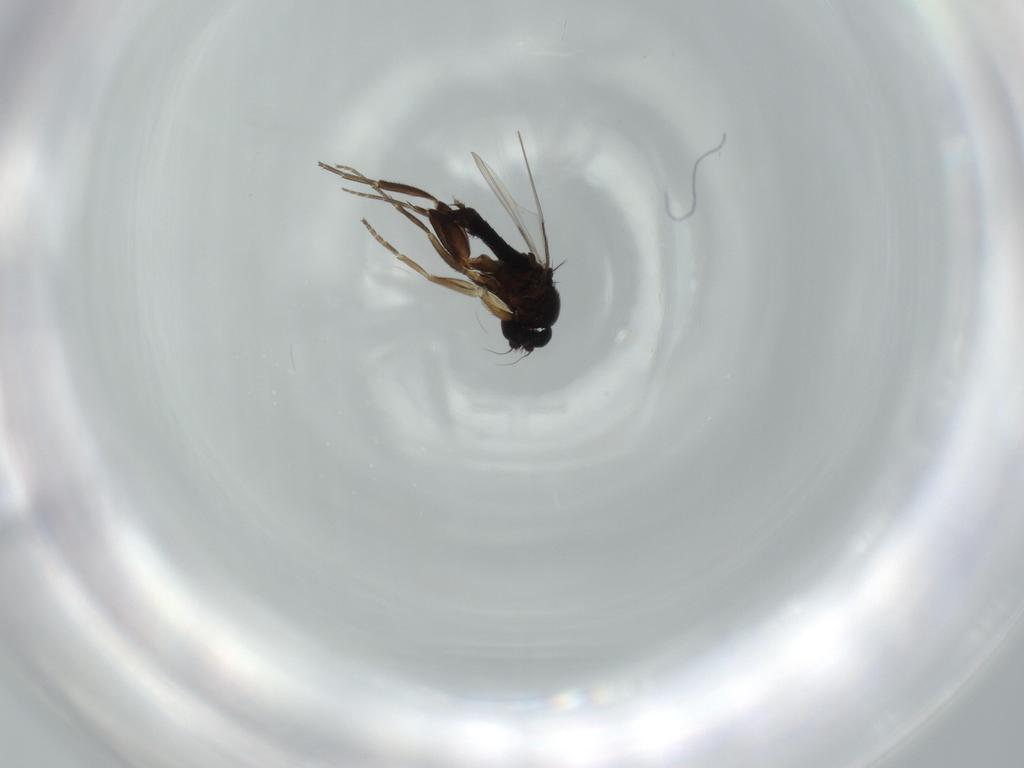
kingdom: Animalia
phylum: Arthropoda
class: Insecta
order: Diptera
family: Phoridae
